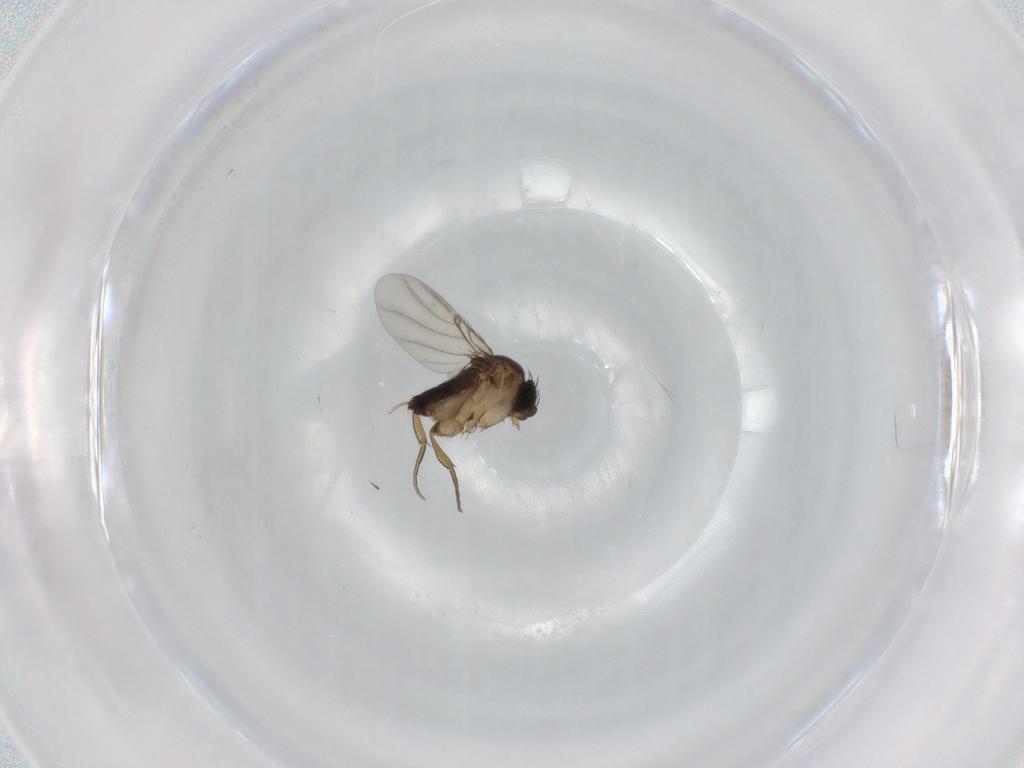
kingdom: Animalia
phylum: Arthropoda
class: Insecta
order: Diptera
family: Phoridae
